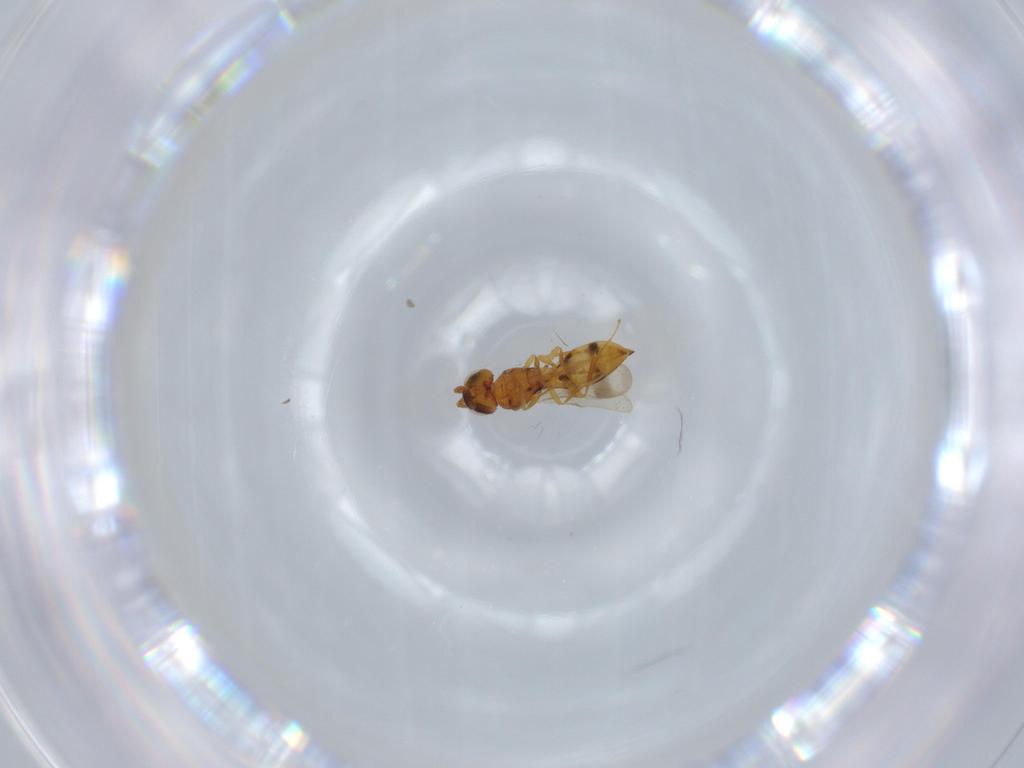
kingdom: Animalia
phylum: Arthropoda
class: Insecta
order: Hymenoptera
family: Scelionidae
